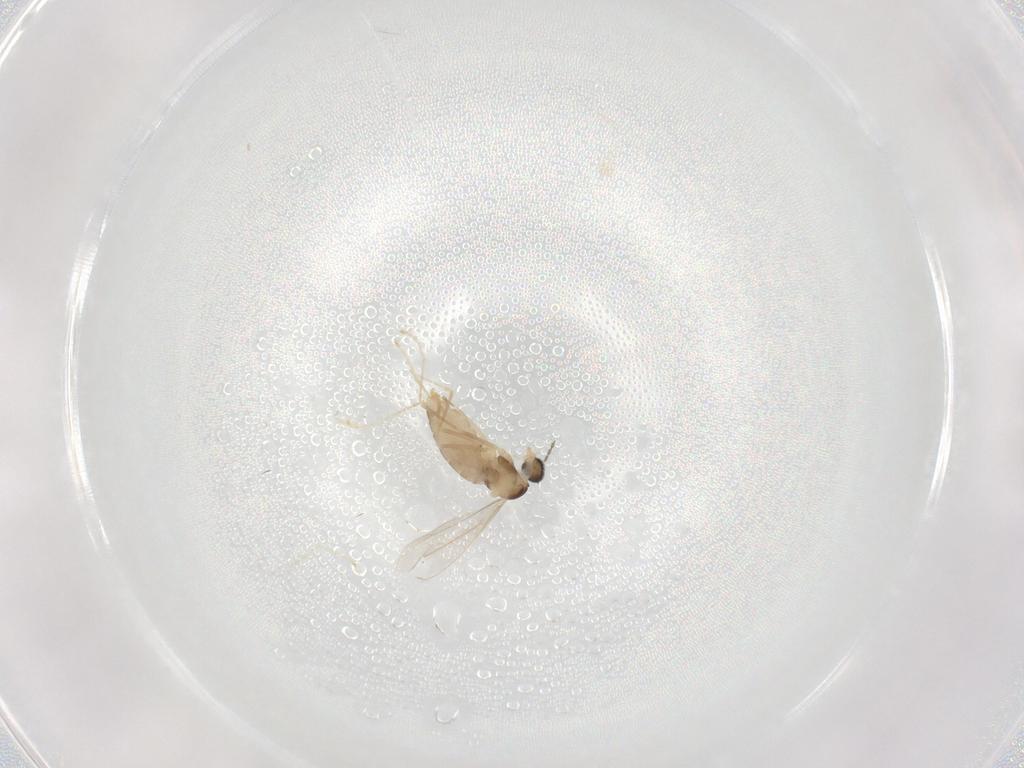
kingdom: Animalia
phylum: Arthropoda
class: Insecta
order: Diptera
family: Cecidomyiidae
